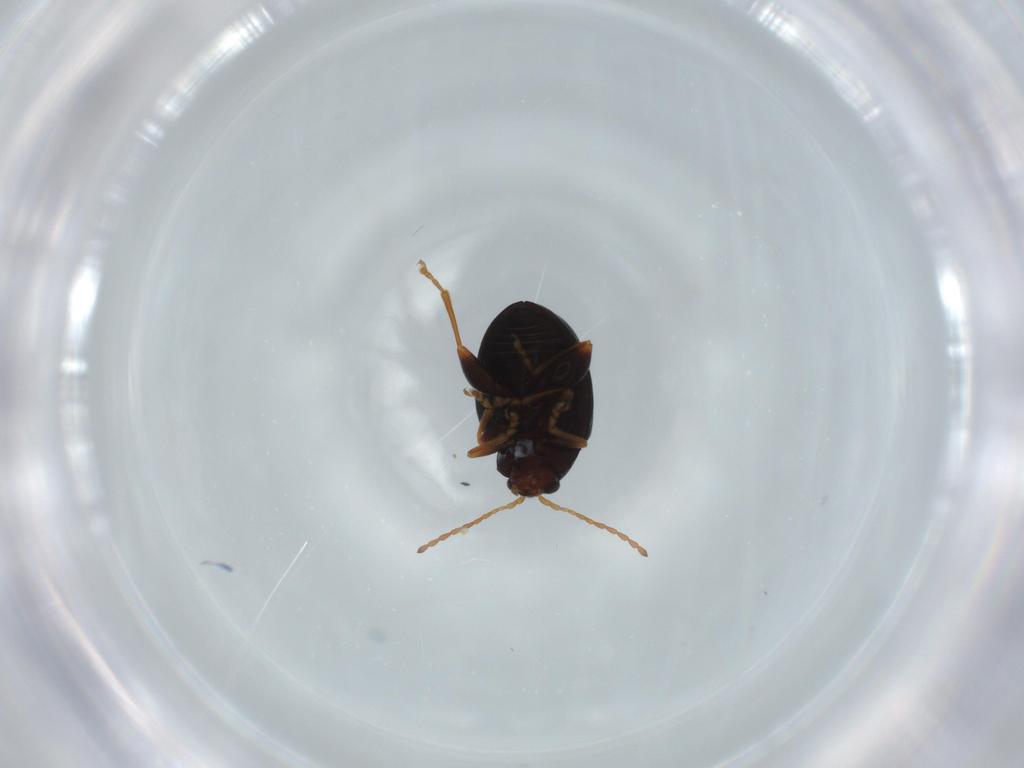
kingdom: Animalia
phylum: Arthropoda
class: Insecta
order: Coleoptera
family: Chrysomelidae
